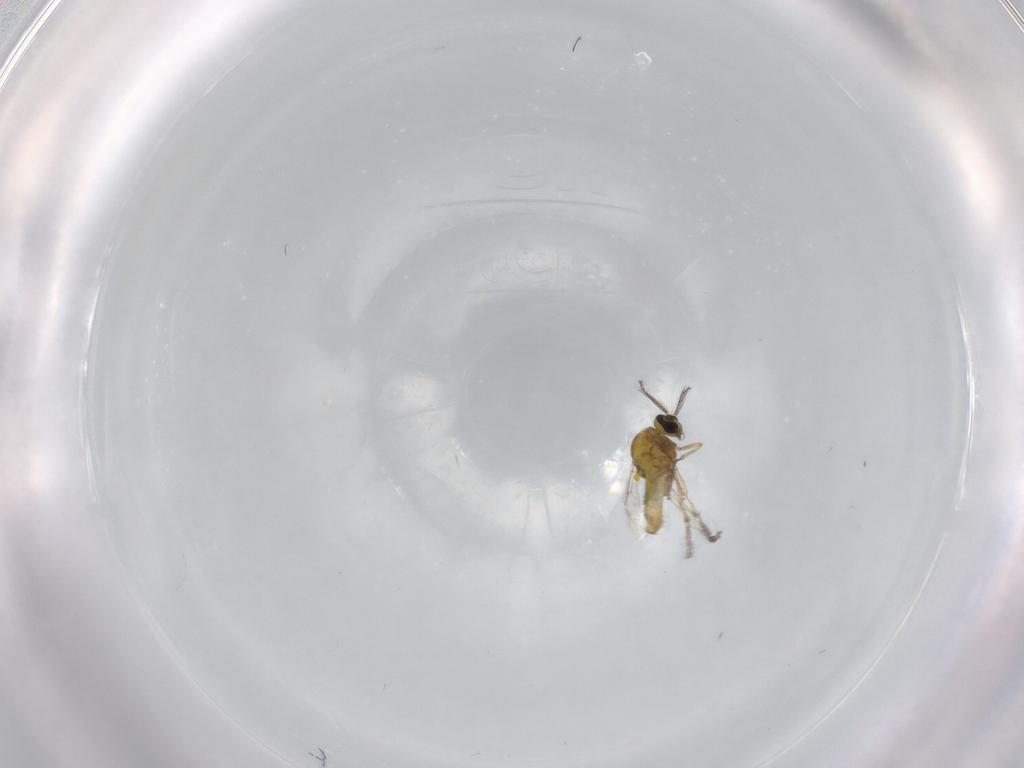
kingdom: Animalia
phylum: Arthropoda
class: Insecta
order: Diptera
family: Ceratopogonidae
